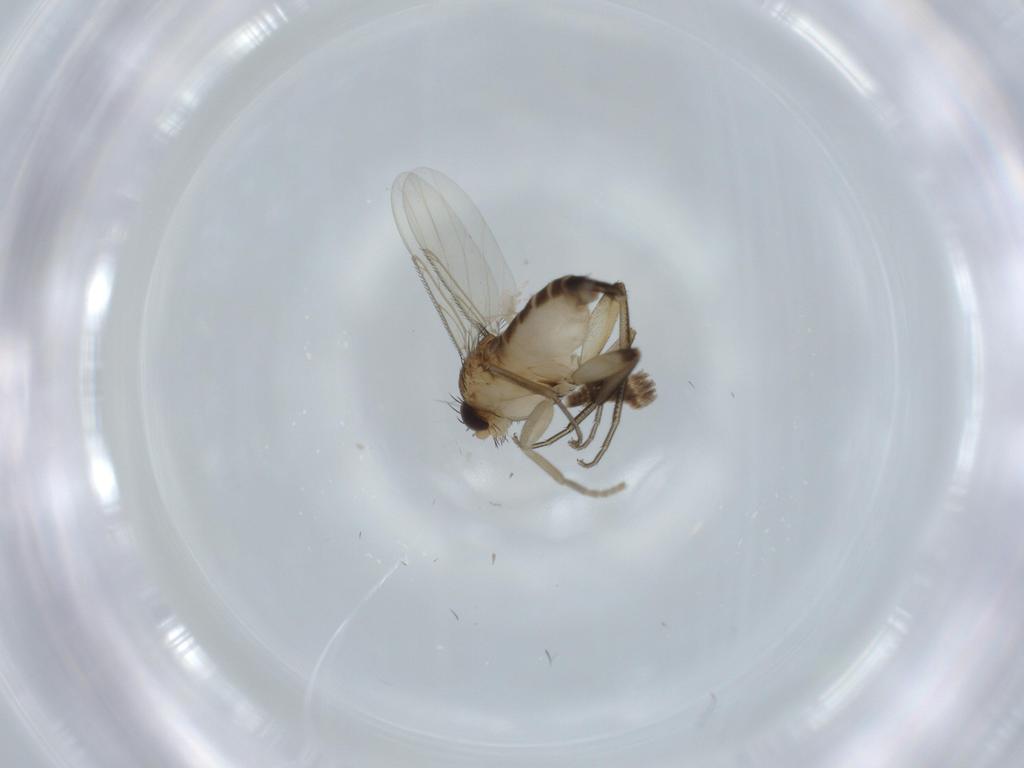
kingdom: Animalia
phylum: Arthropoda
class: Insecta
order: Diptera
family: Phoridae
